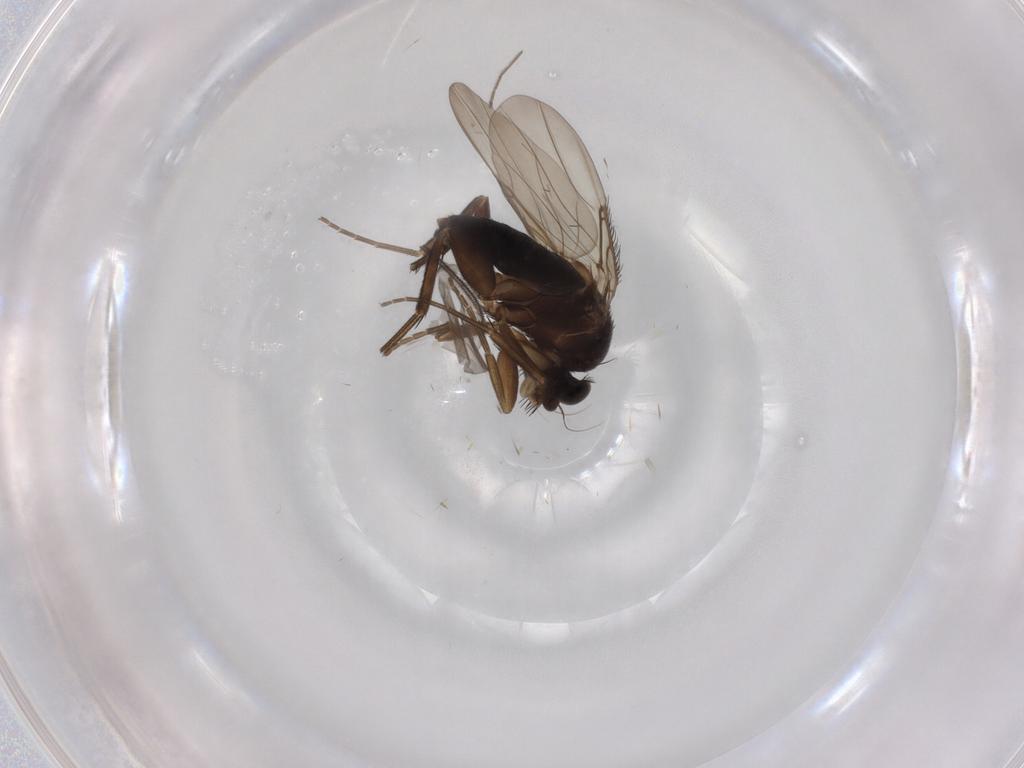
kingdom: Animalia
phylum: Arthropoda
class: Insecta
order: Diptera
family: Phoridae
